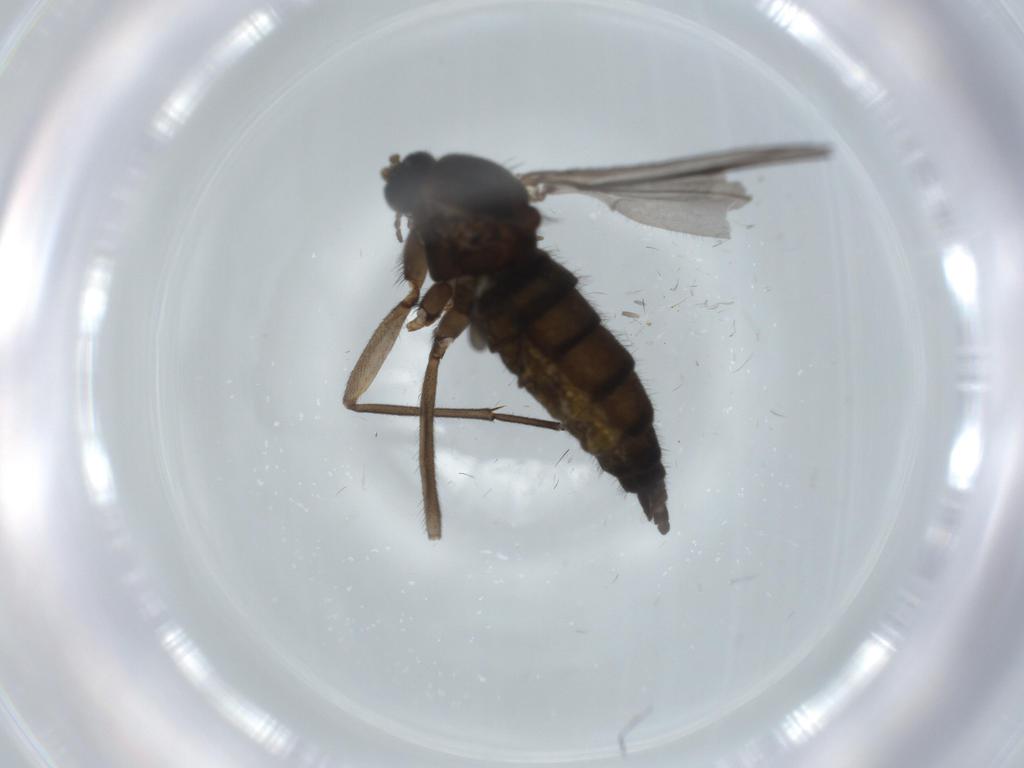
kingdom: Animalia
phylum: Arthropoda
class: Insecta
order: Diptera
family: Ceratopogonidae
